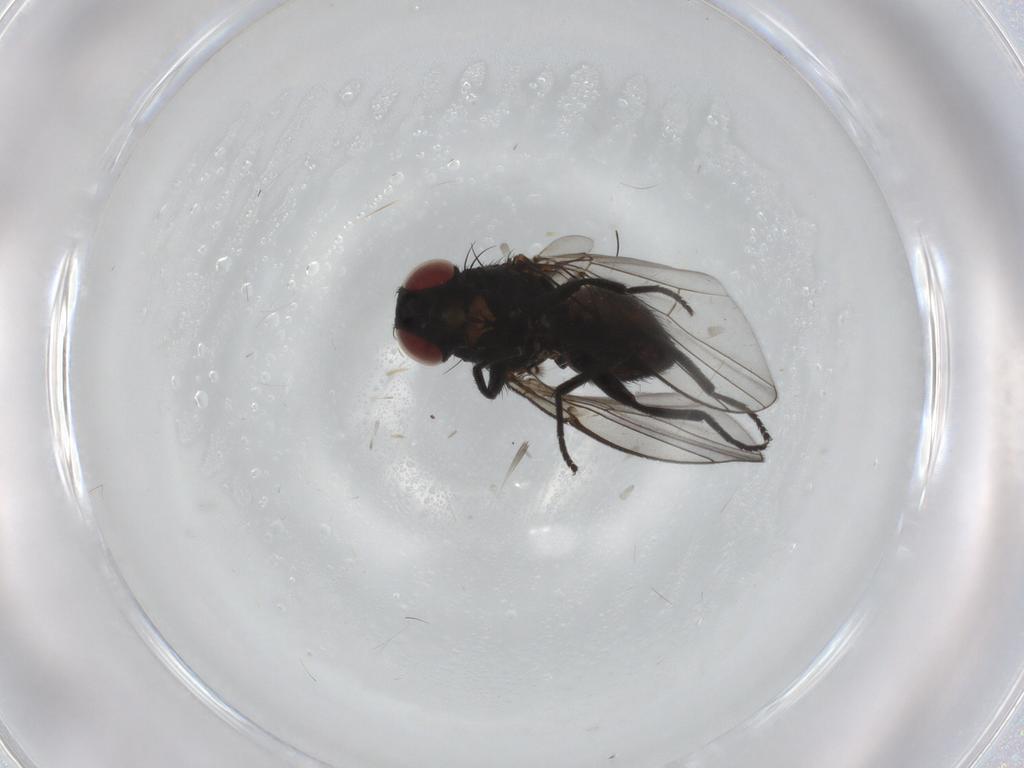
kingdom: Animalia
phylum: Arthropoda
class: Insecta
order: Diptera
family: Agromyzidae
